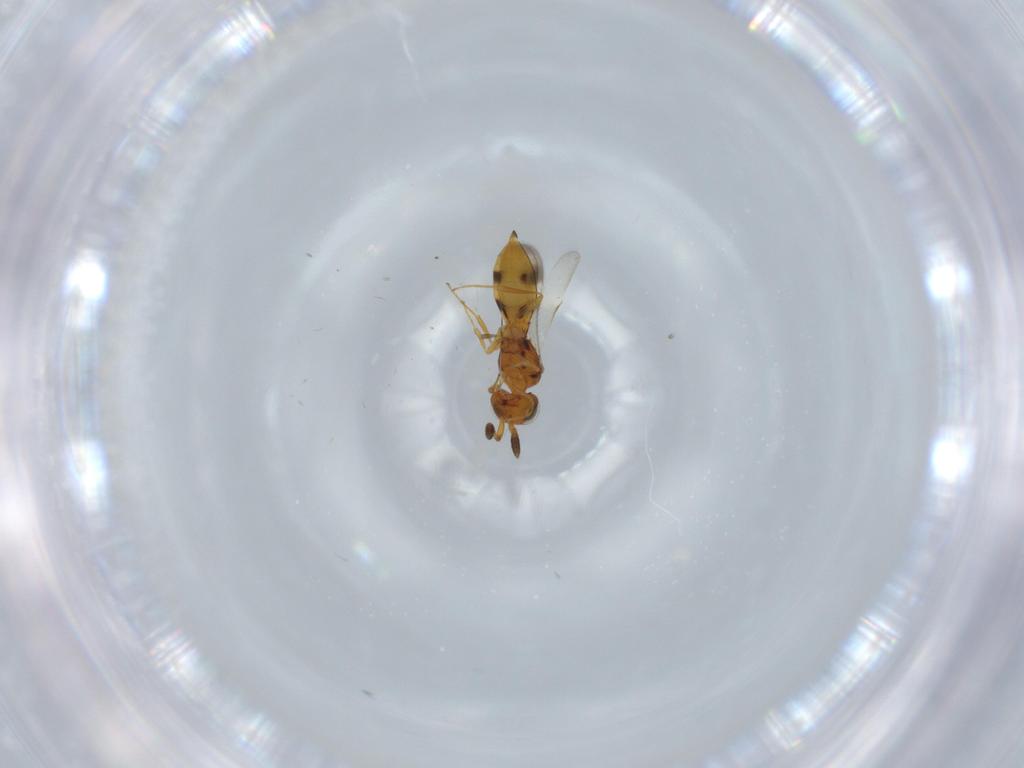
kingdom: Animalia
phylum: Arthropoda
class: Insecta
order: Hymenoptera
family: Scelionidae
